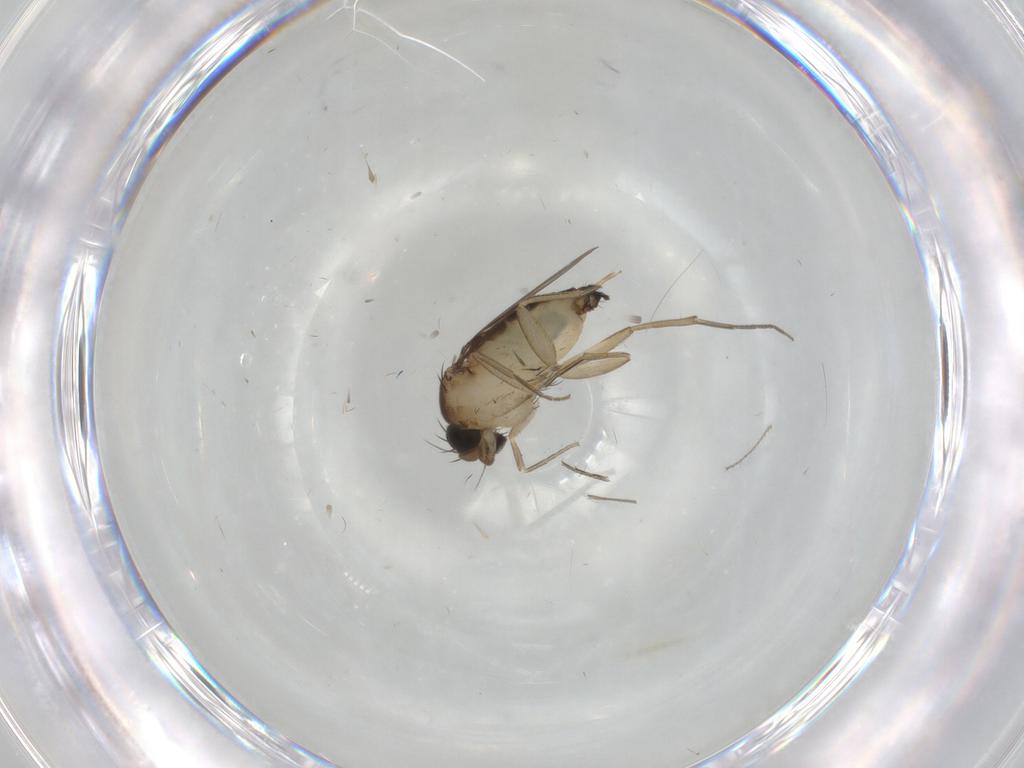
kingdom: Animalia
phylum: Arthropoda
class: Insecta
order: Diptera
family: Phoridae
